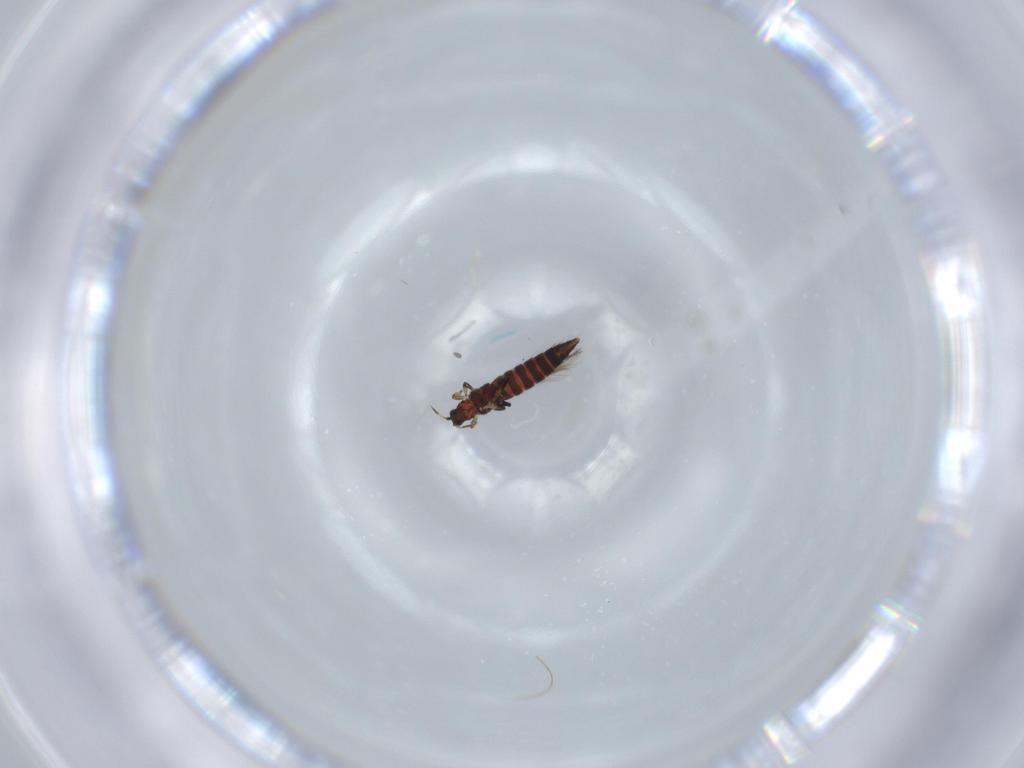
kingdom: Animalia
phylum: Arthropoda
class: Insecta
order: Thysanoptera
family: Thripidae
